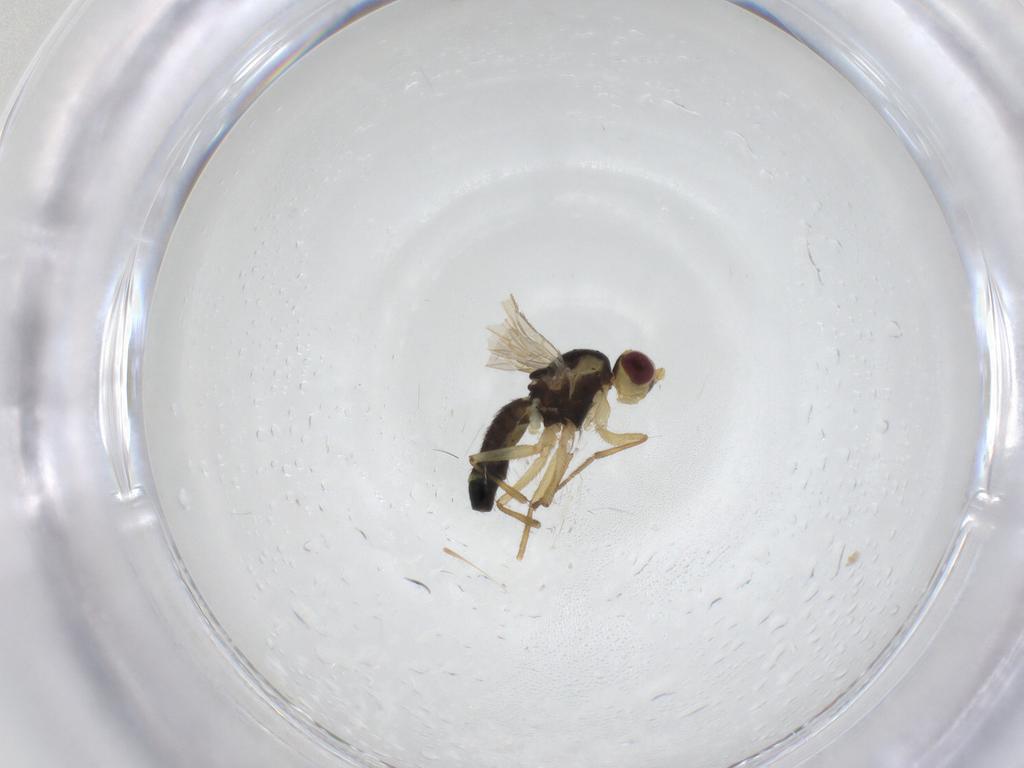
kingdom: Animalia
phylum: Arthropoda
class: Insecta
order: Diptera
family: Agromyzidae
